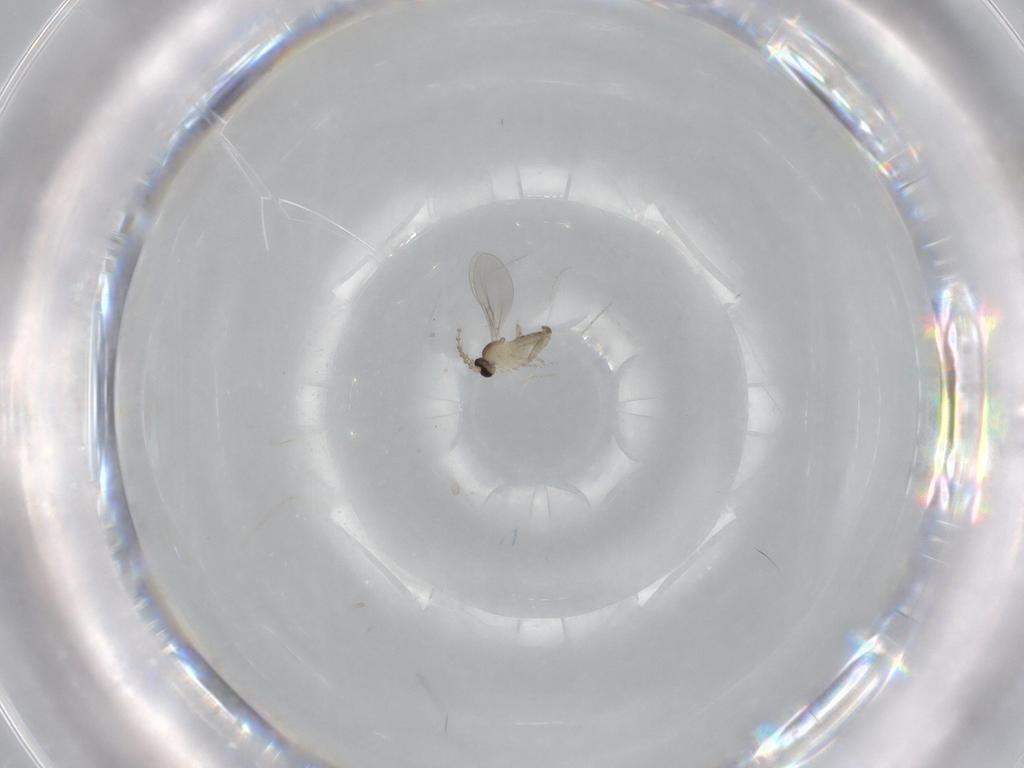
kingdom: Animalia
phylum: Arthropoda
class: Insecta
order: Diptera
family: Cecidomyiidae
